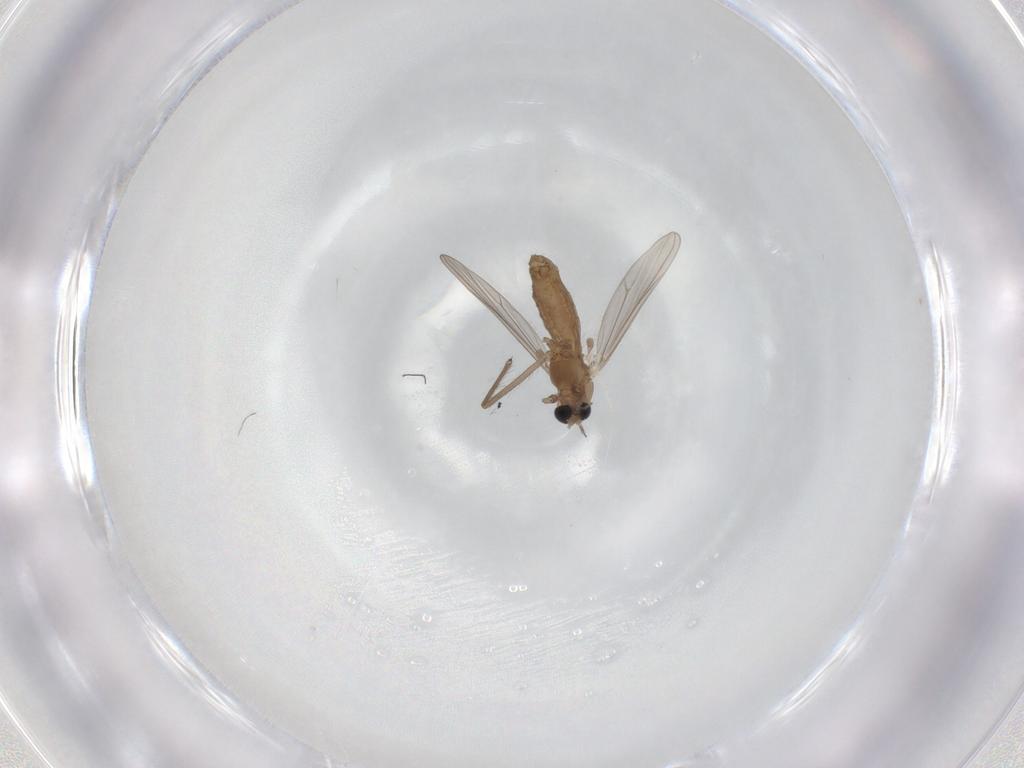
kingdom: Animalia
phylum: Arthropoda
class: Insecta
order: Diptera
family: Chironomidae
